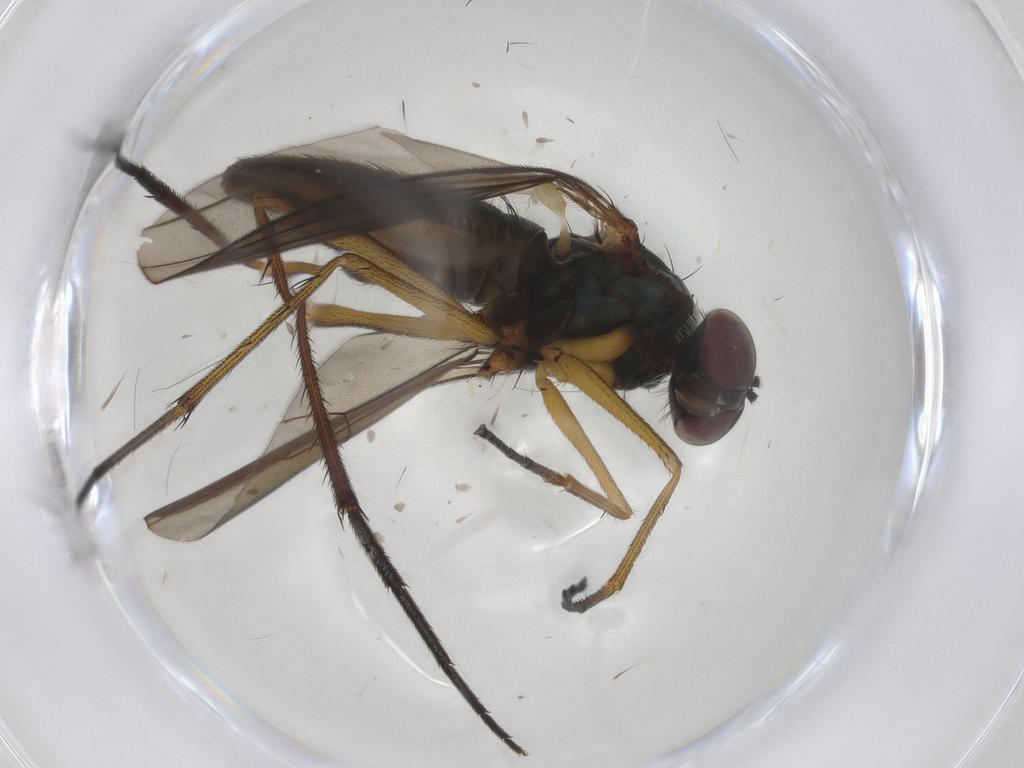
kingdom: Animalia
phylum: Arthropoda
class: Insecta
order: Diptera
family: Dolichopodidae
